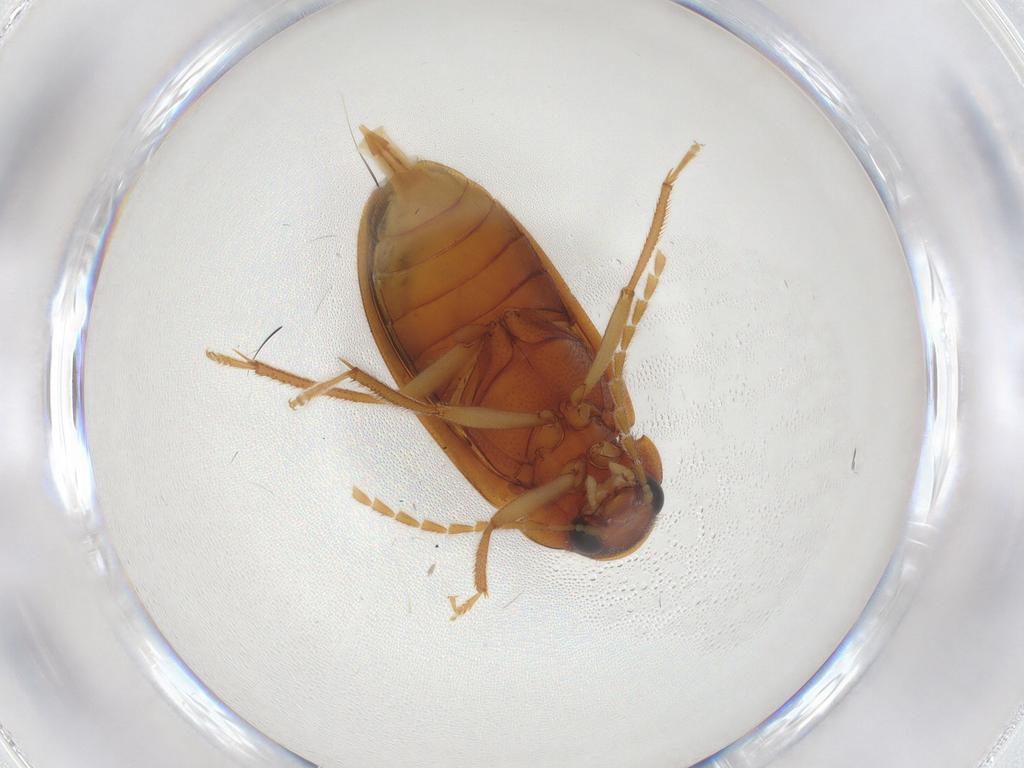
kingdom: Animalia
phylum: Arthropoda
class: Insecta
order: Coleoptera
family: Ptilodactylidae
